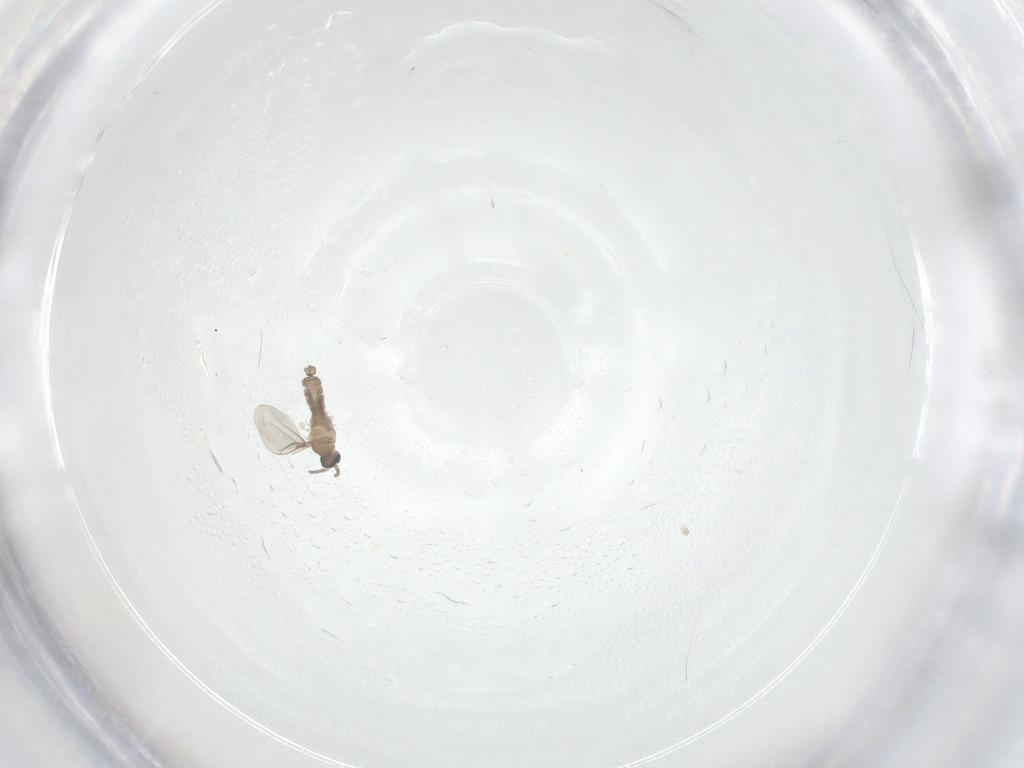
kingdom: Animalia
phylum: Arthropoda
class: Insecta
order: Diptera
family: Cecidomyiidae
